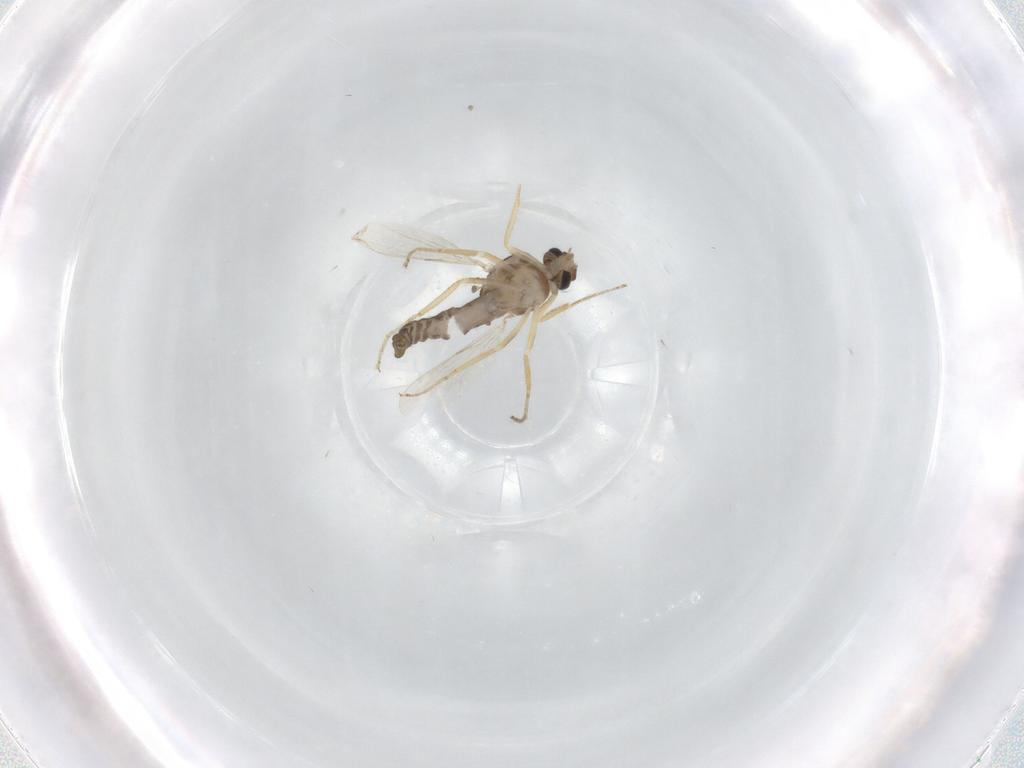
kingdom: Animalia
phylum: Arthropoda
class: Insecta
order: Diptera
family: Ceratopogonidae
